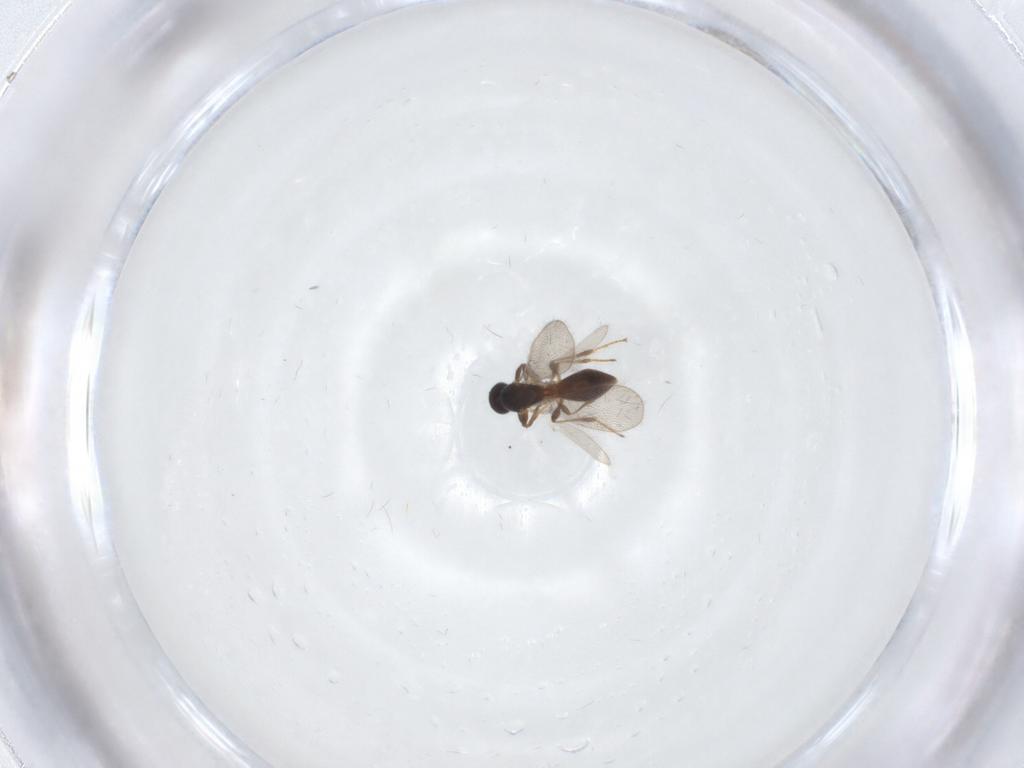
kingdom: Animalia
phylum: Arthropoda
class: Insecta
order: Hymenoptera
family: Platygastridae
